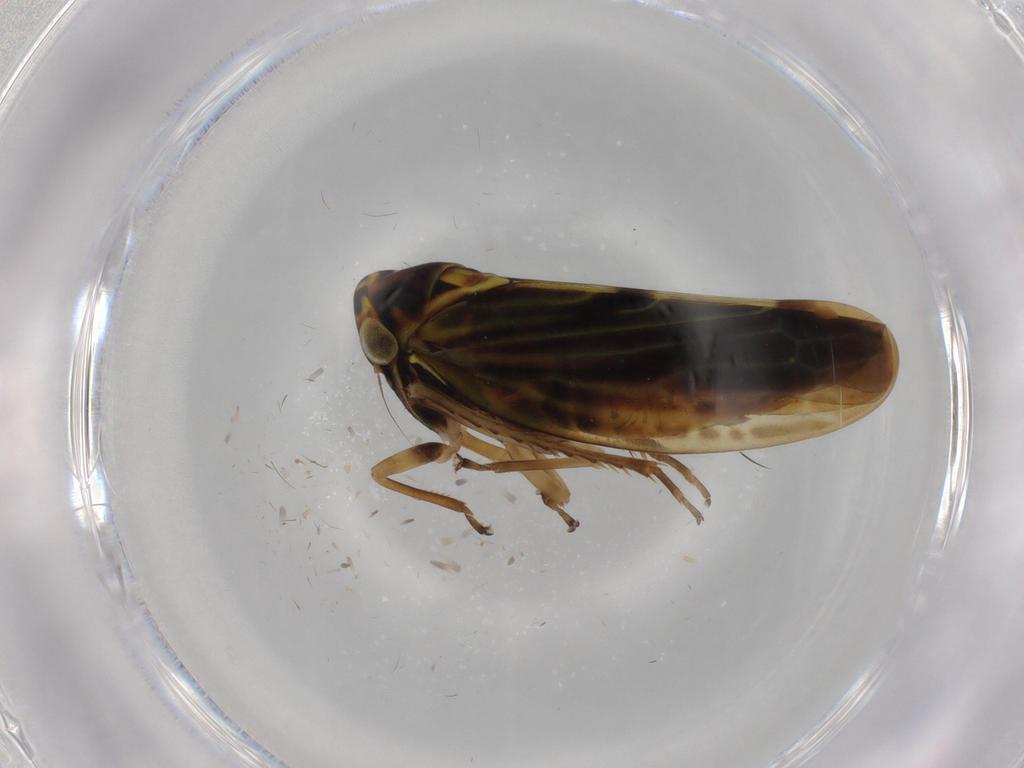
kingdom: Animalia
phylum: Arthropoda
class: Insecta
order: Hemiptera
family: Cicadellidae
